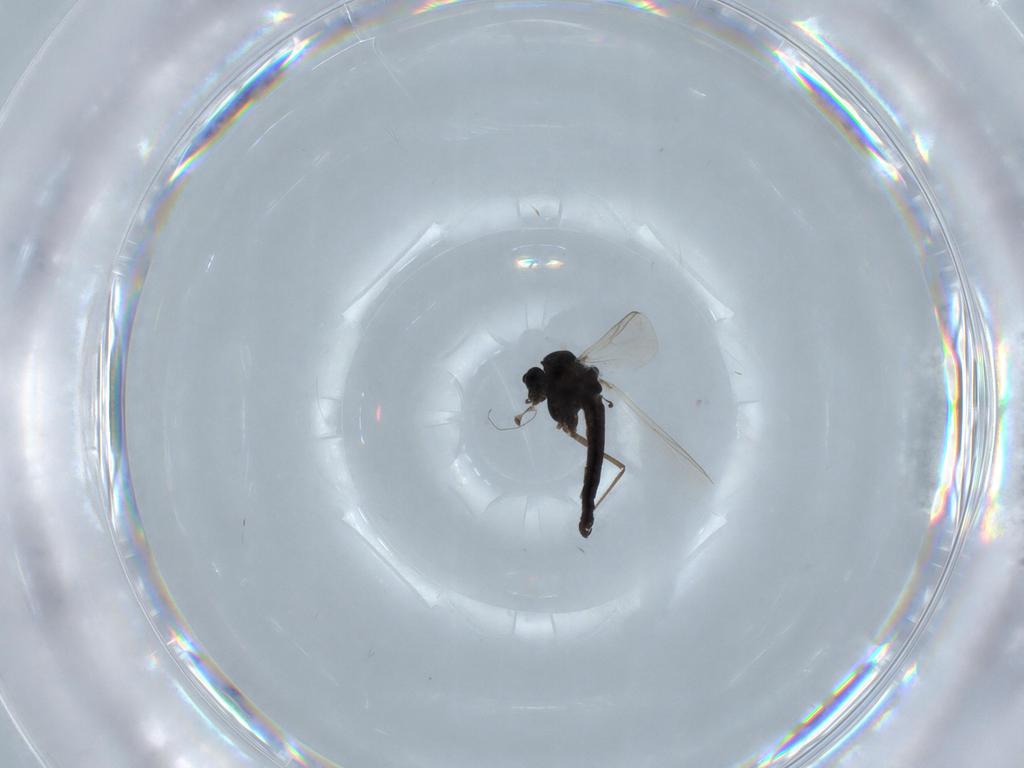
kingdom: Animalia
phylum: Arthropoda
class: Insecta
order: Diptera
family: Chironomidae
